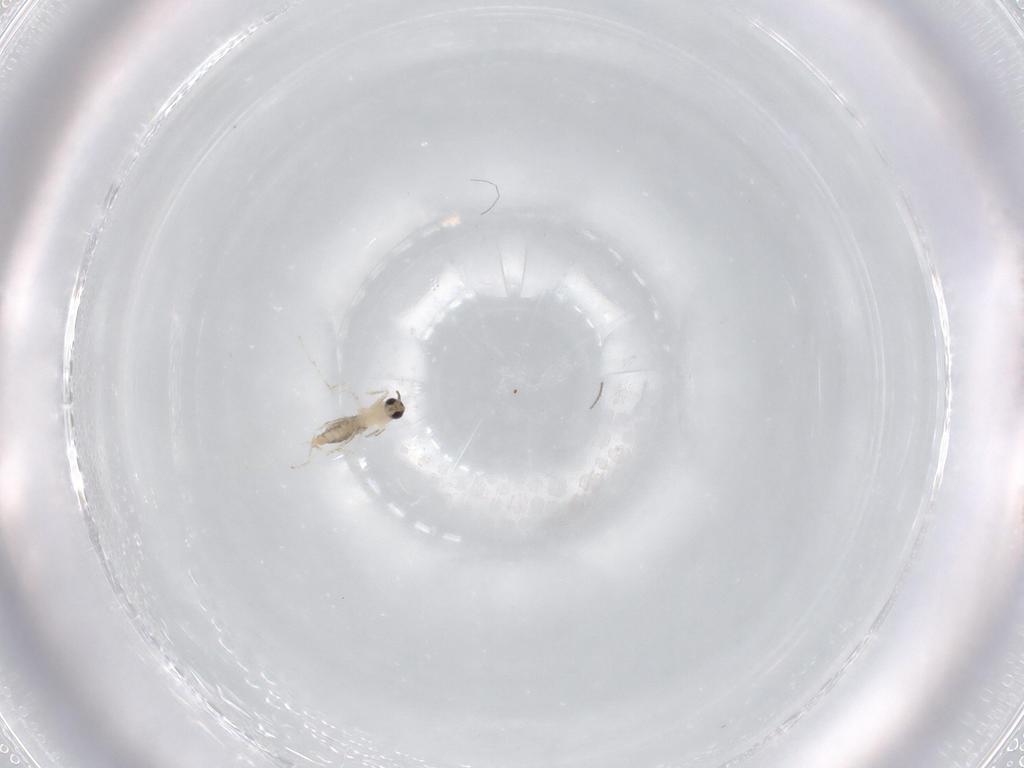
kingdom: Animalia
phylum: Arthropoda
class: Insecta
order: Diptera
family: Cecidomyiidae
